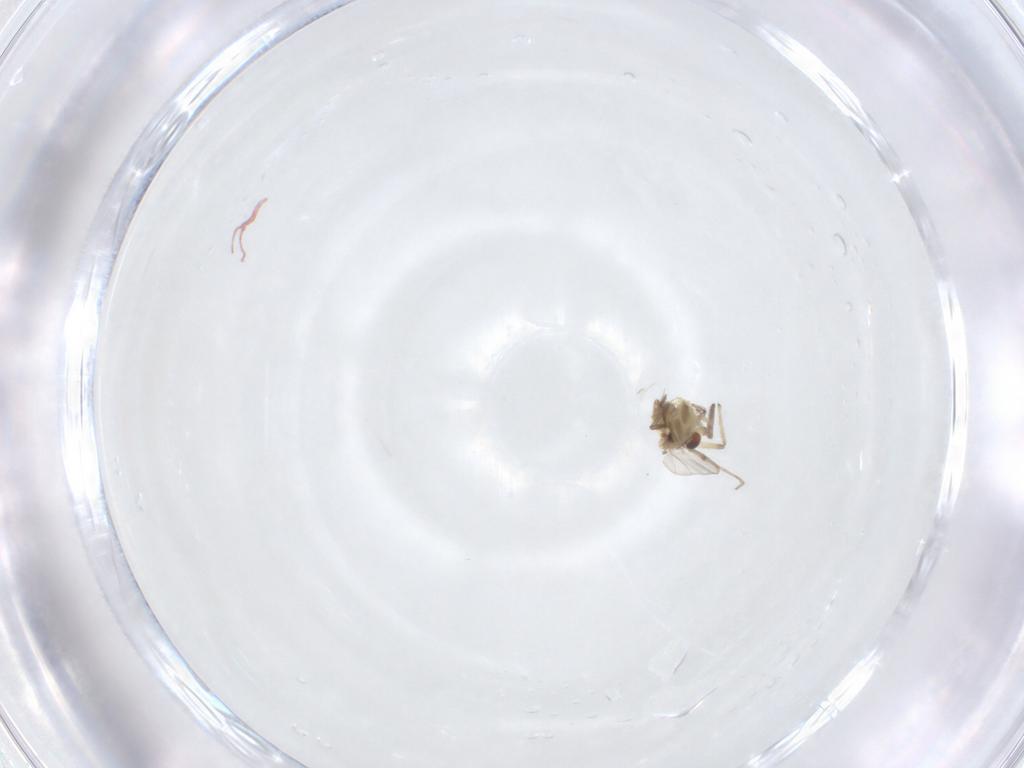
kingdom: Animalia
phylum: Arthropoda
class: Insecta
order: Diptera
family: Chironomidae
